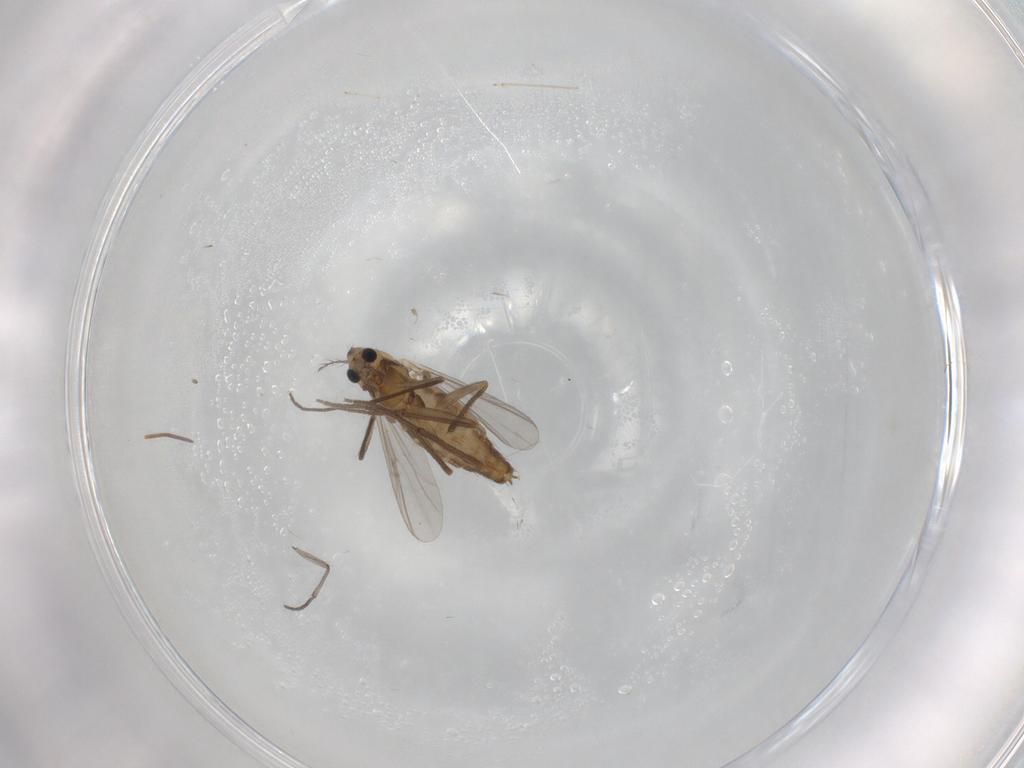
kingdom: Animalia
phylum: Arthropoda
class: Insecta
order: Diptera
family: Chironomidae
